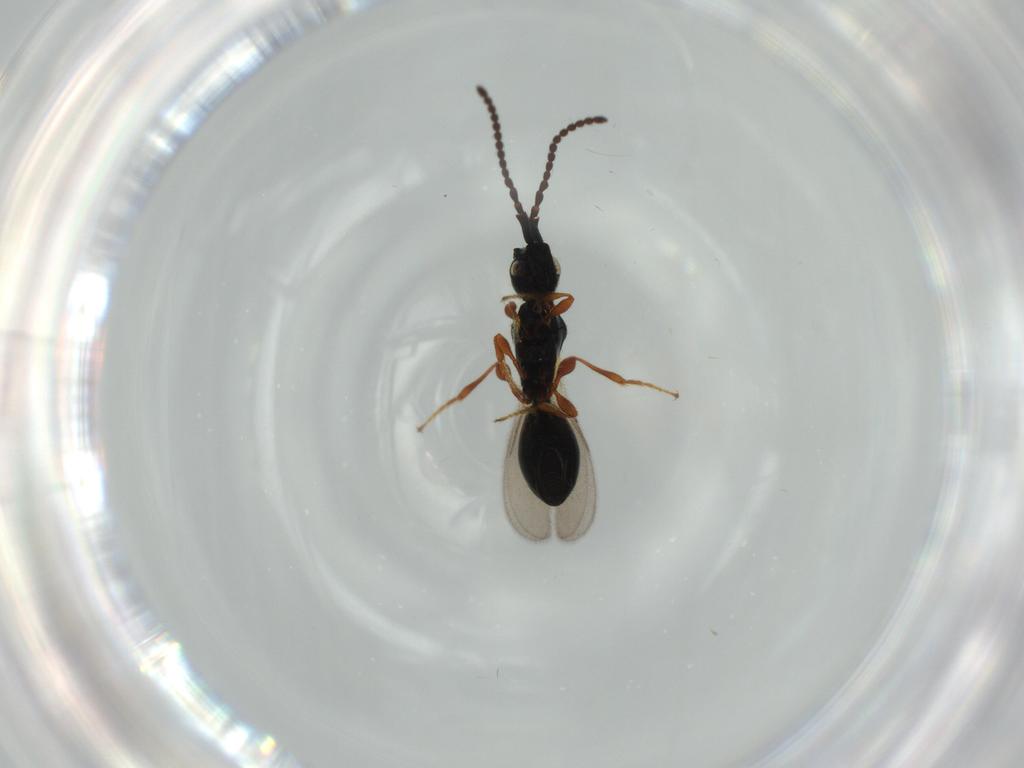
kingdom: Animalia
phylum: Arthropoda
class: Insecta
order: Hymenoptera
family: Diapriidae
